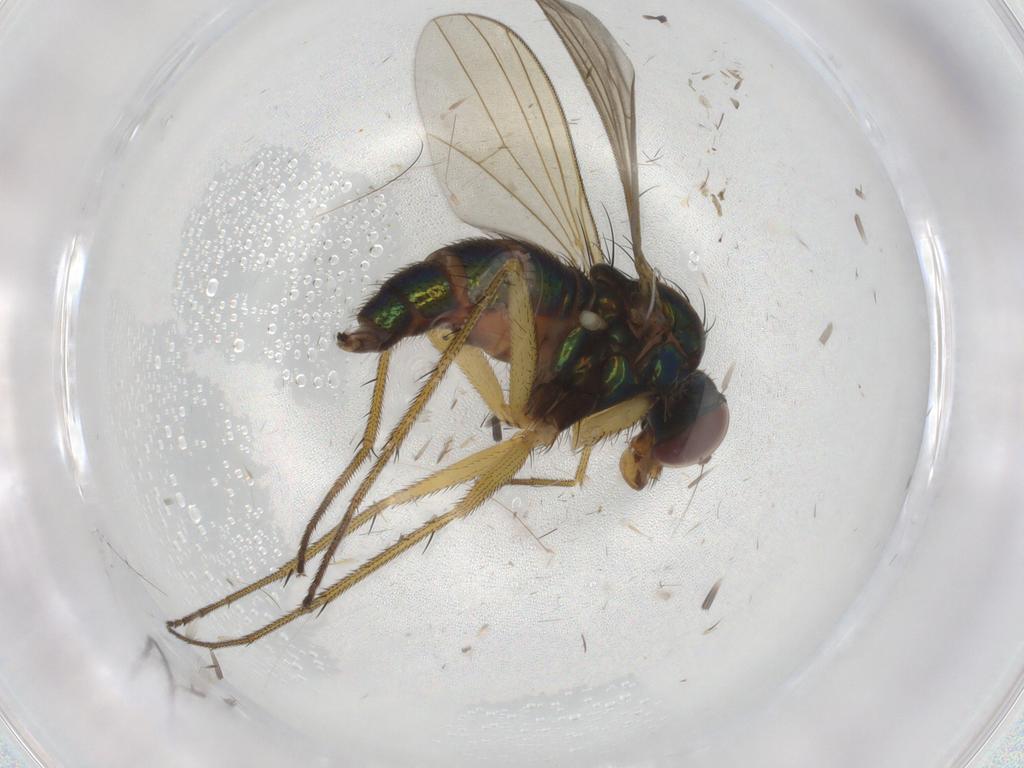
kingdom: Animalia
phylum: Arthropoda
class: Insecta
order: Diptera
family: Dolichopodidae
